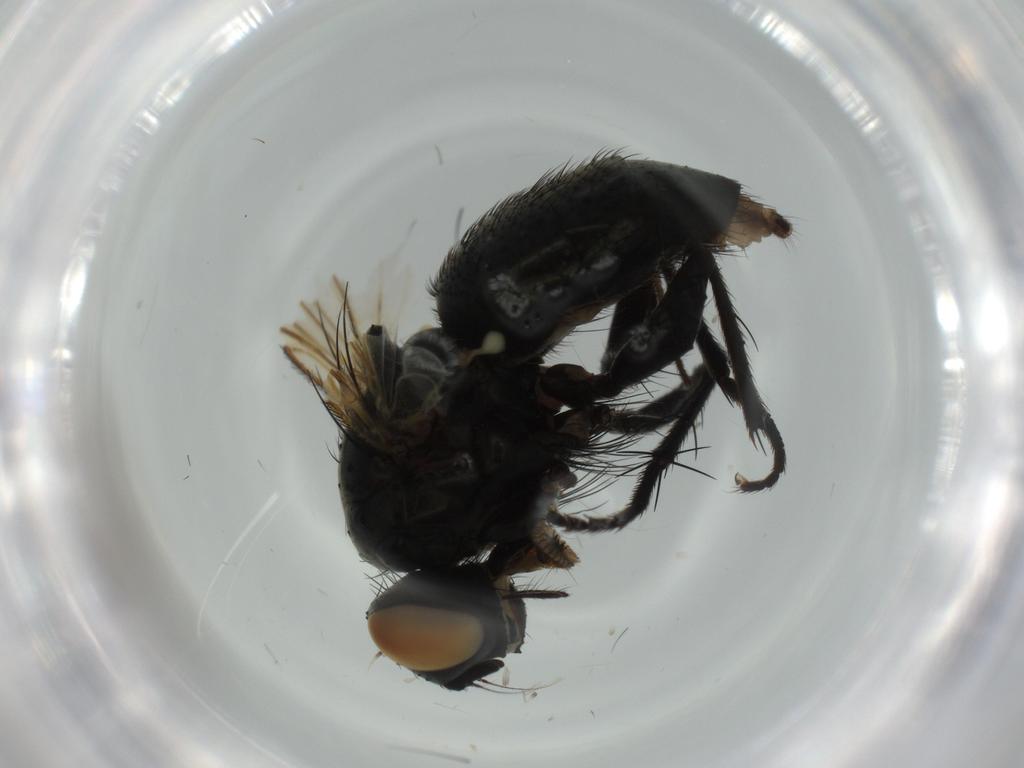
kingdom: Animalia
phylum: Arthropoda
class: Insecta
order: Diptera
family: Muscidae
